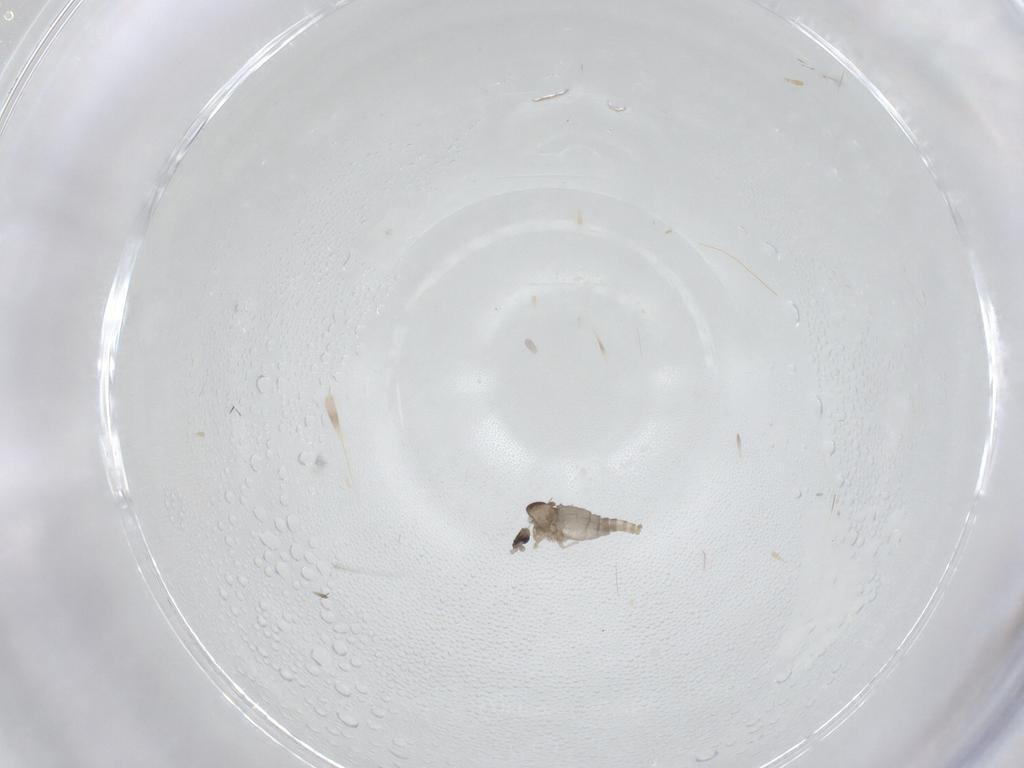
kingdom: Animalia
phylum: Arthropoda
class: Insecta
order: Diptera
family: Cecidomyiidae
